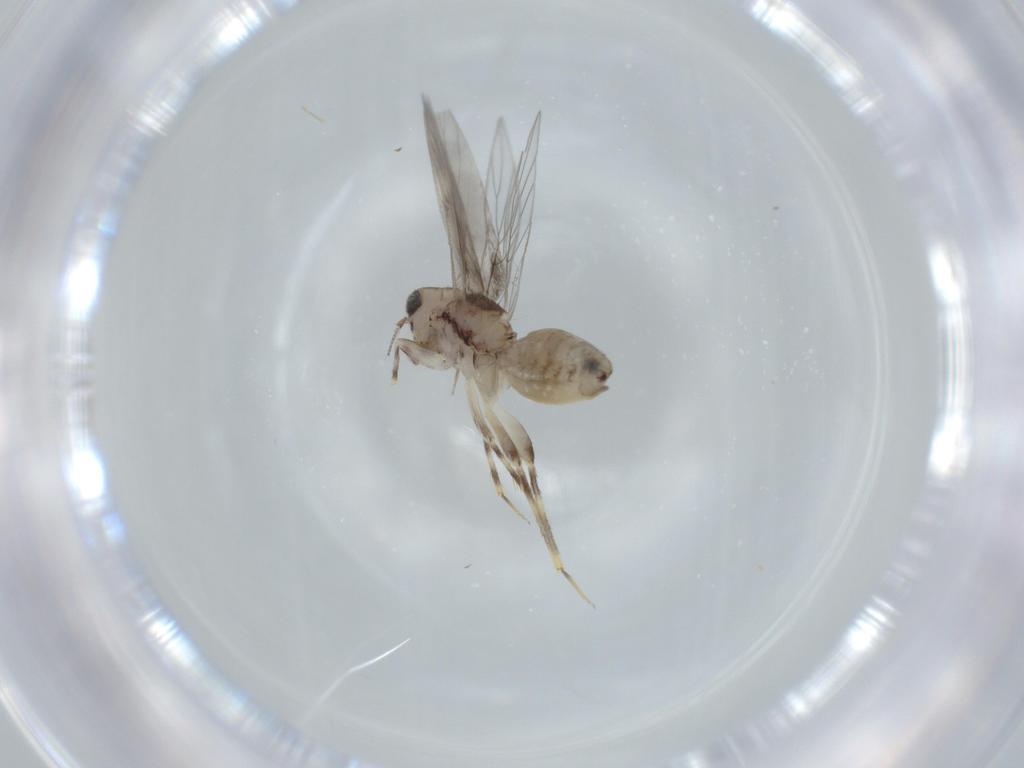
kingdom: Animalia
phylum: Arthropoda
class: Insecta
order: Psocodea
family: Lepidopsocidae
